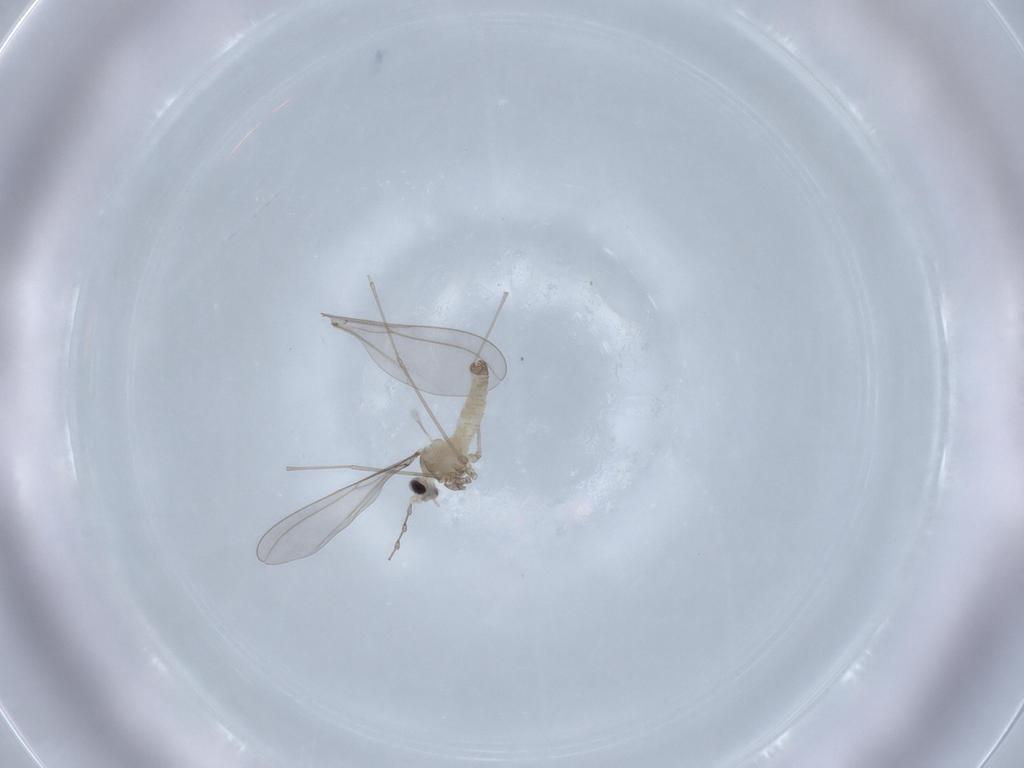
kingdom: Animalia
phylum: Arthropoda
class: Insecta
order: Diptera
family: Cecidomyiidae
